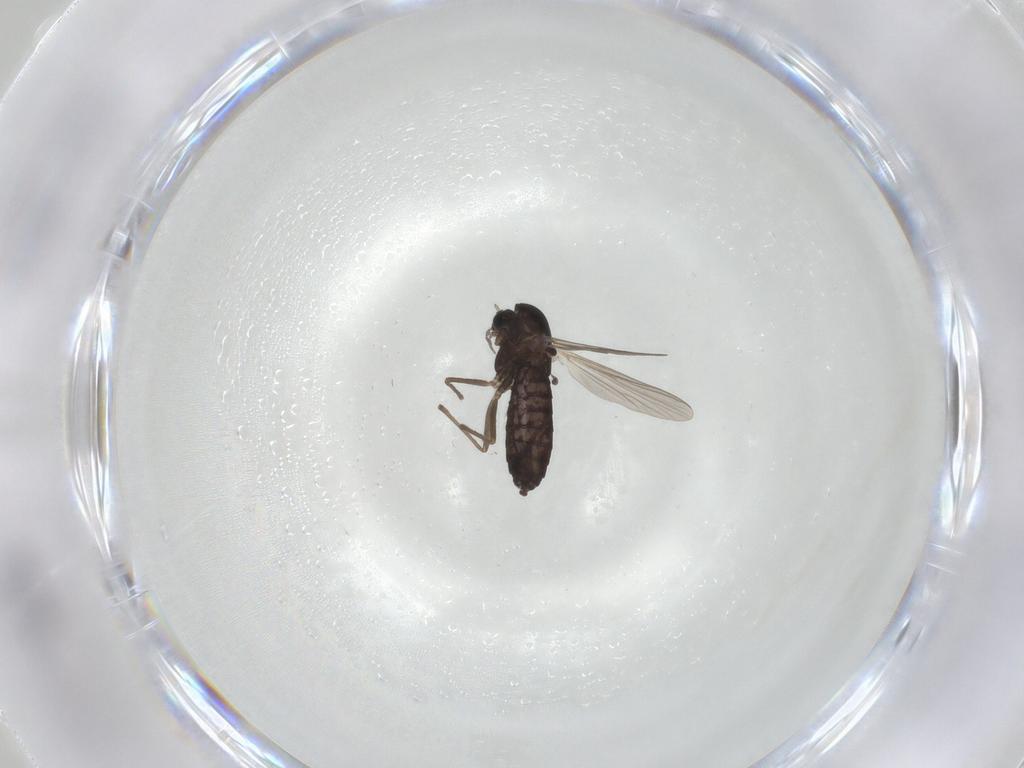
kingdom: Animalia
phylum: Arthropoda
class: Insecta
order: Diptera
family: Chironomidae
